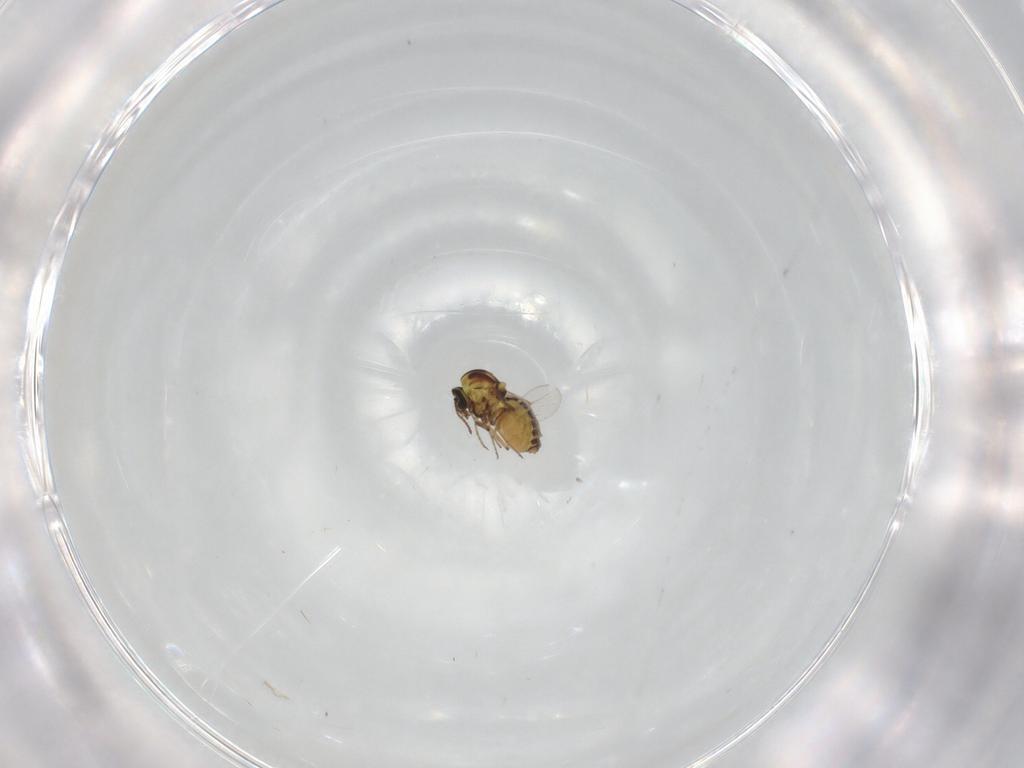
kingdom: Animalia
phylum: Arthropoda
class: Insecta
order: Diptera
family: Ceratopogonidae
